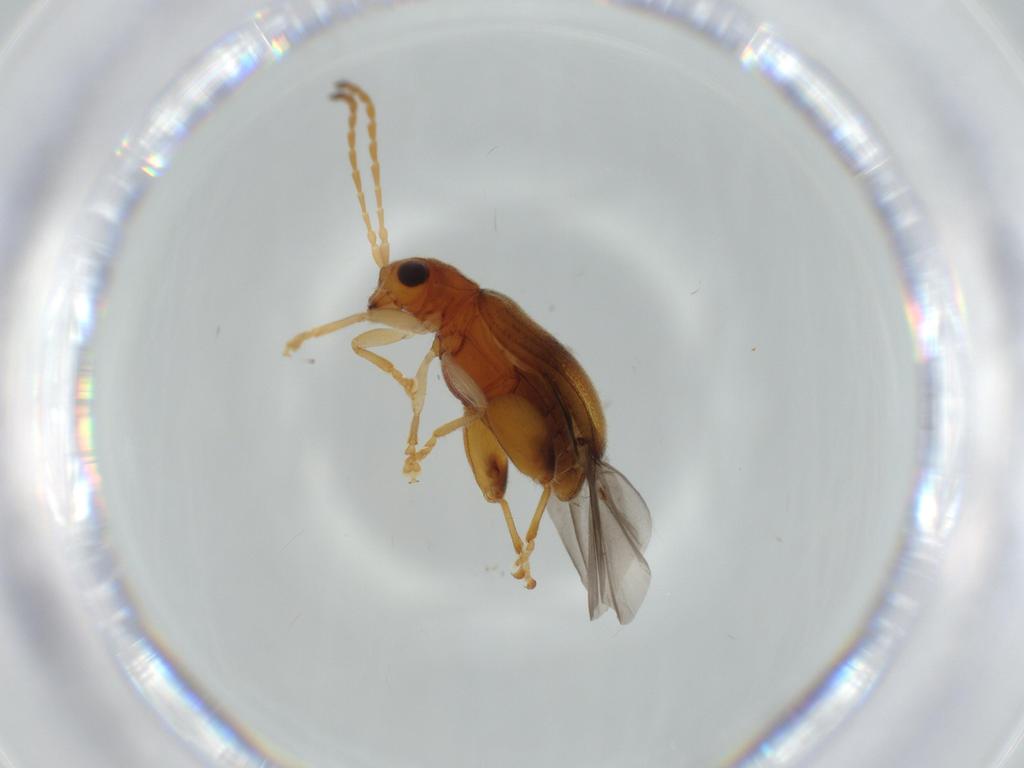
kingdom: Animalia
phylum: Arthropoda
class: Insecta
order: Coleoptera
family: Chrysomelidae
